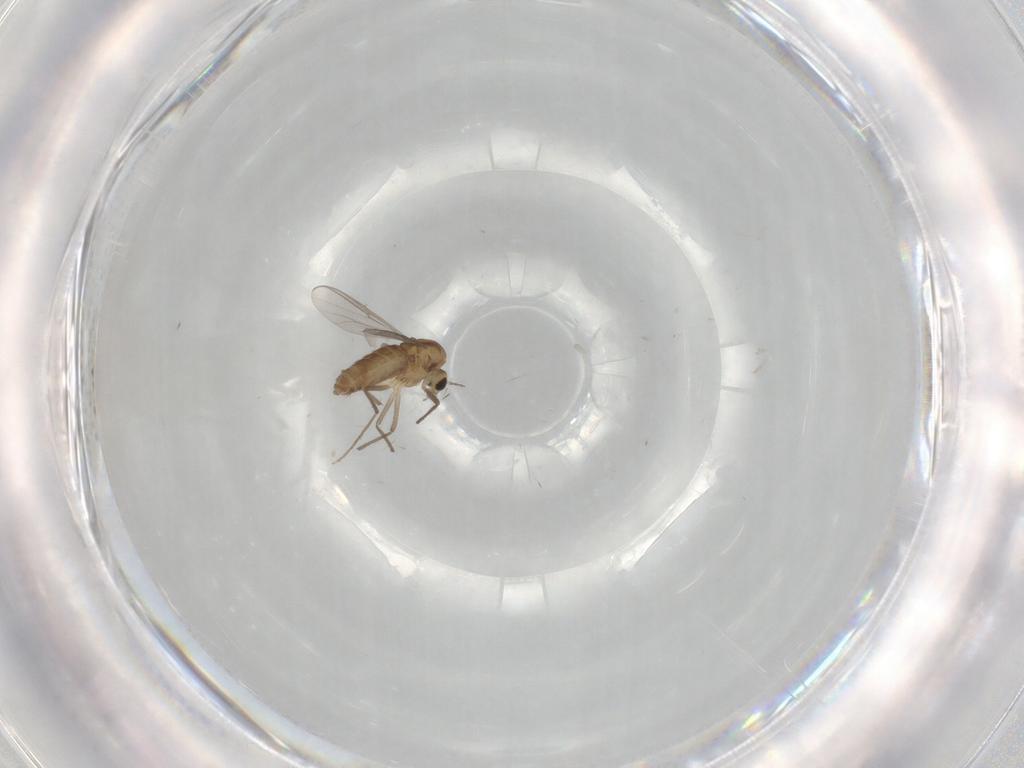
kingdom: Animalia
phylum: Arthropoda
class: Insecta
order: Diptera
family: Chironomidae
